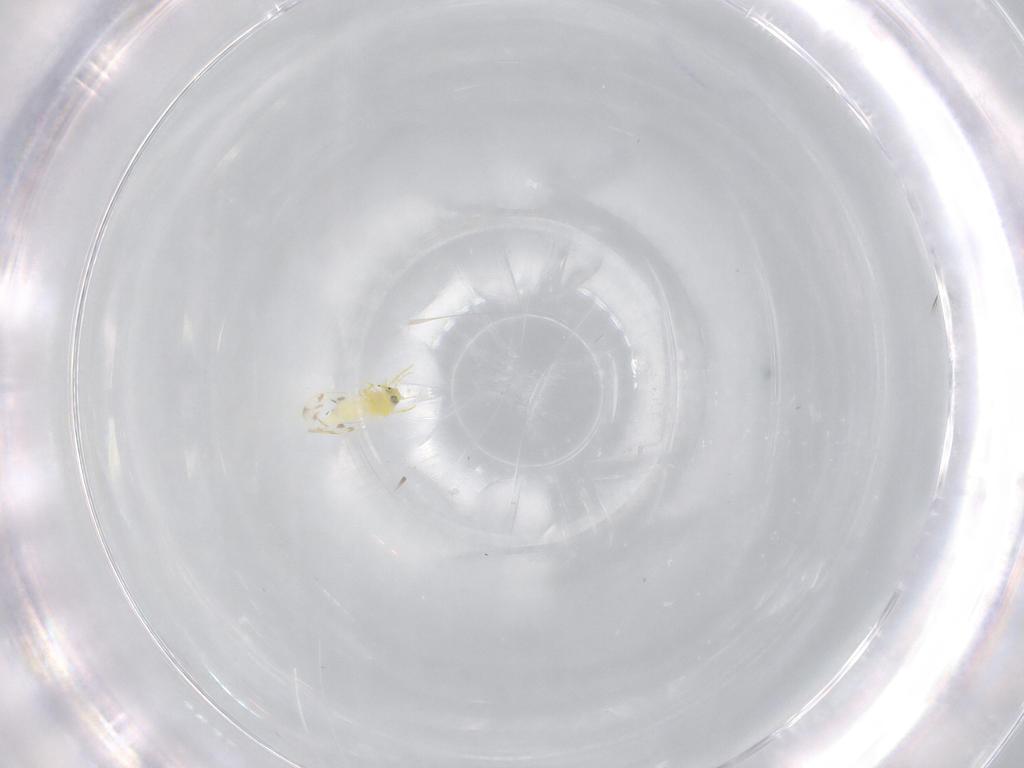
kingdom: Animalia
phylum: Arthropoda
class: Insecta
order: Hemiptera
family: Aleyrodidae
